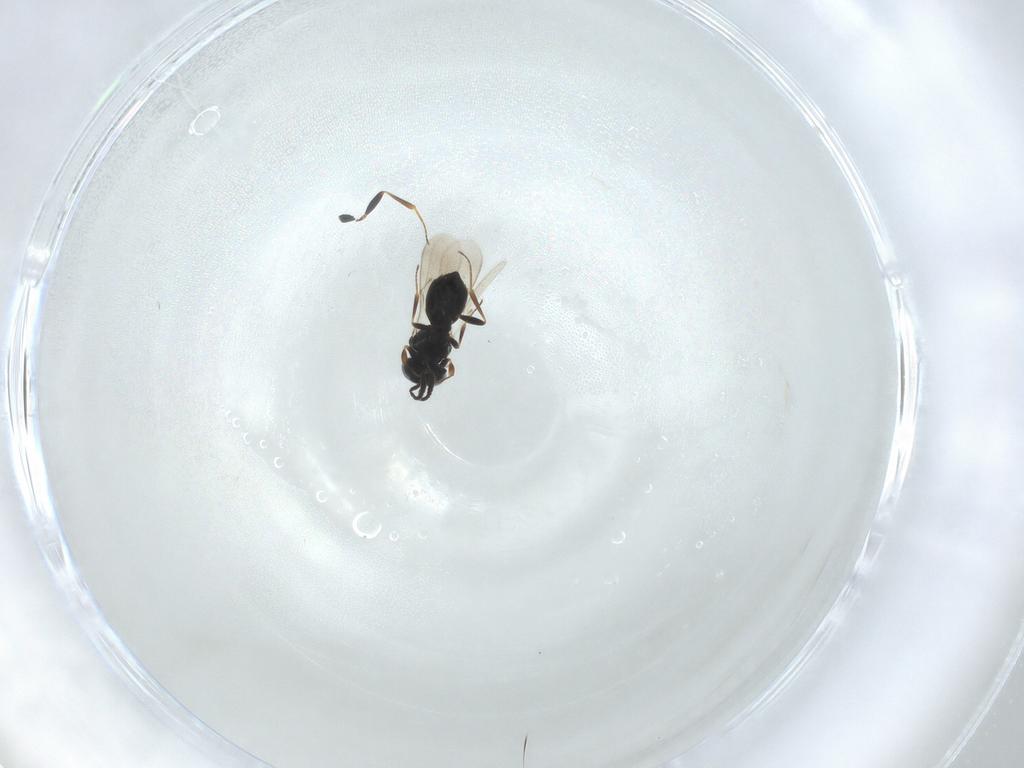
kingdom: Animalia
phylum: Arthropoda
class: Insecta
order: Hymenoptera
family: Scelionidae
